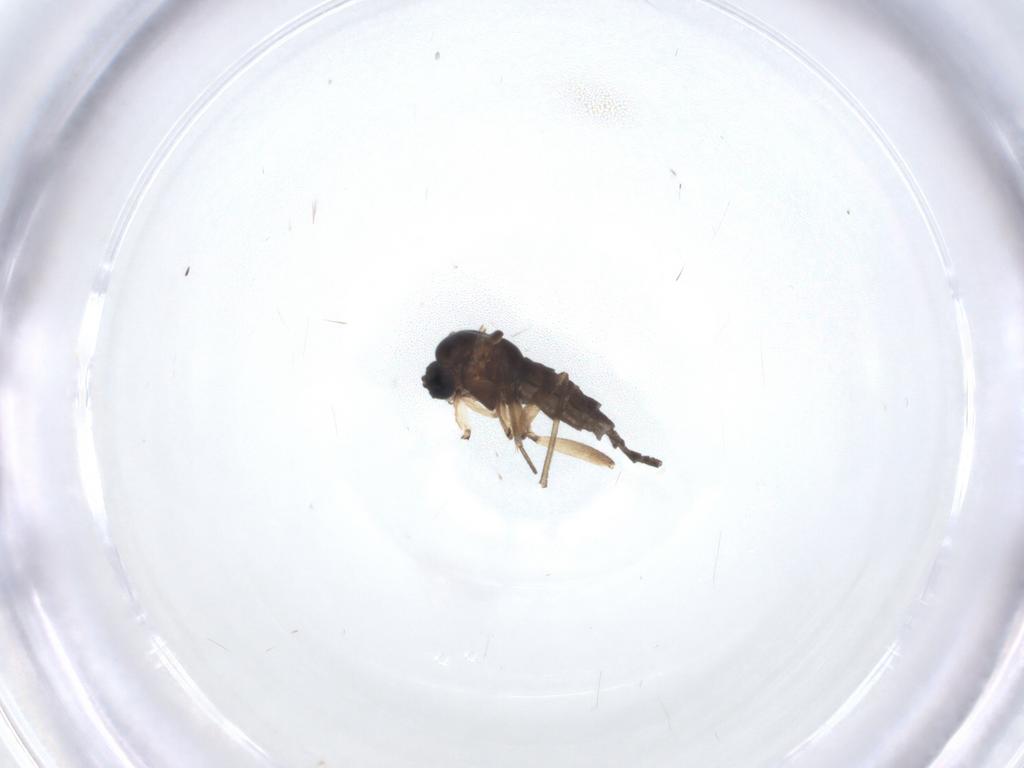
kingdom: Animalia
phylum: Arthropoda
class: Insecta
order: Diptera
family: Sciaridae
